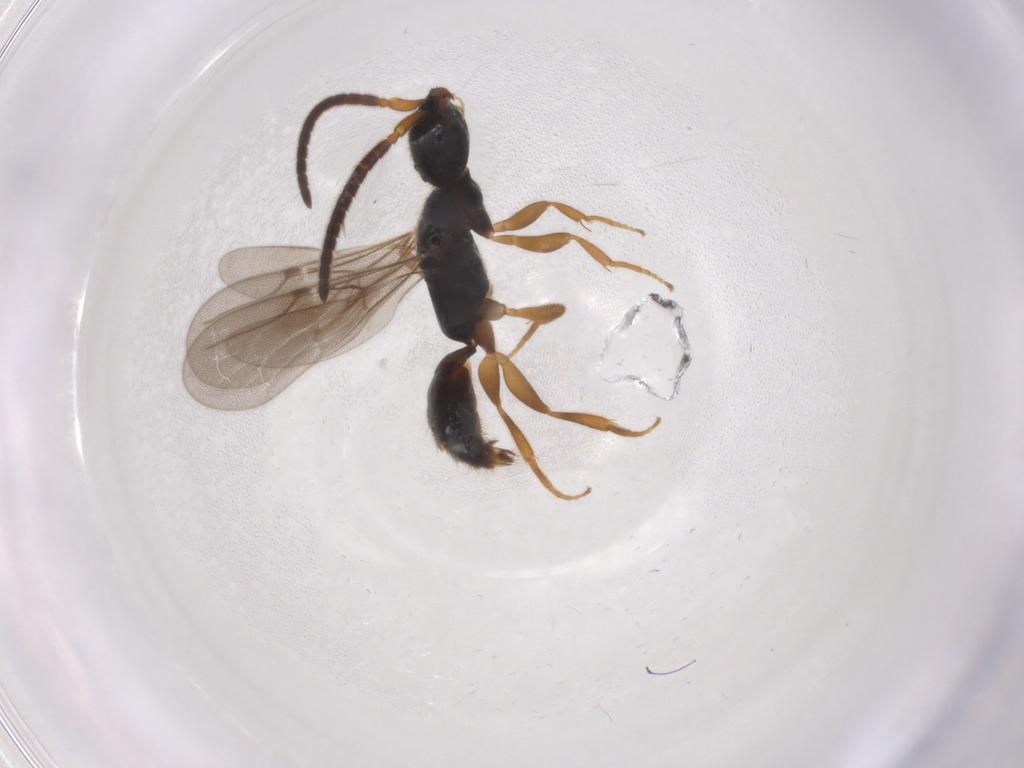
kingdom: Animalia
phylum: Arthropoda
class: Insecta
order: Hymenoptera
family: Bethylidae
